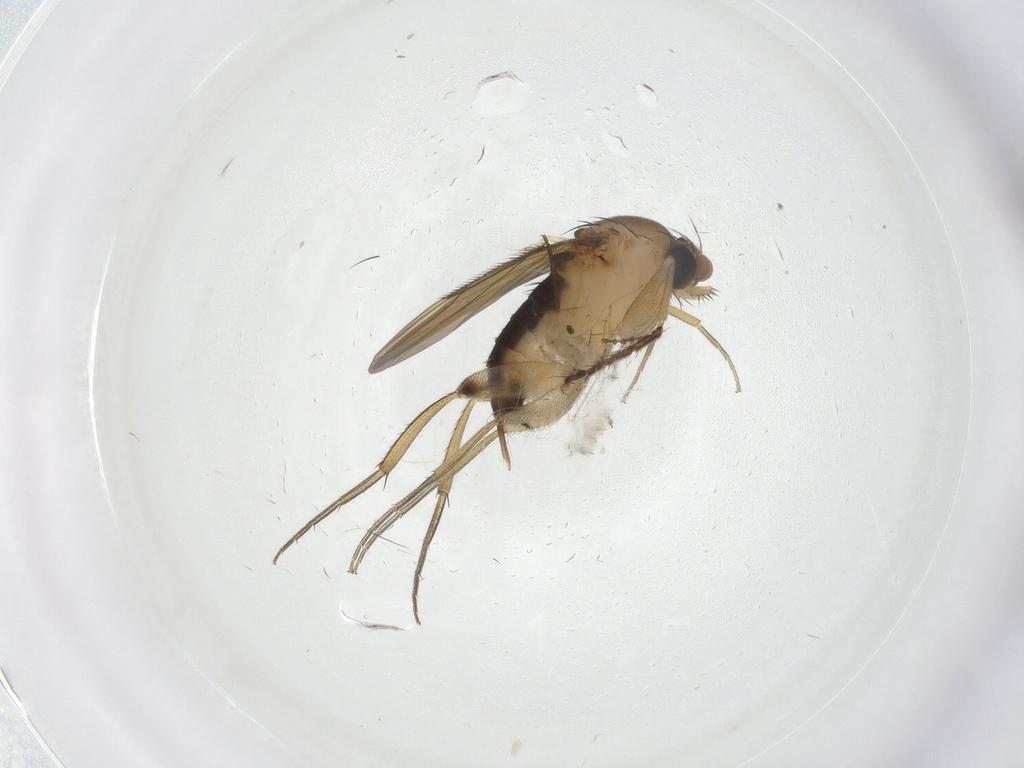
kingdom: Animalia
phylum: Arthropoda
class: Insecta
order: Diptera
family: Ceratopogonidae
